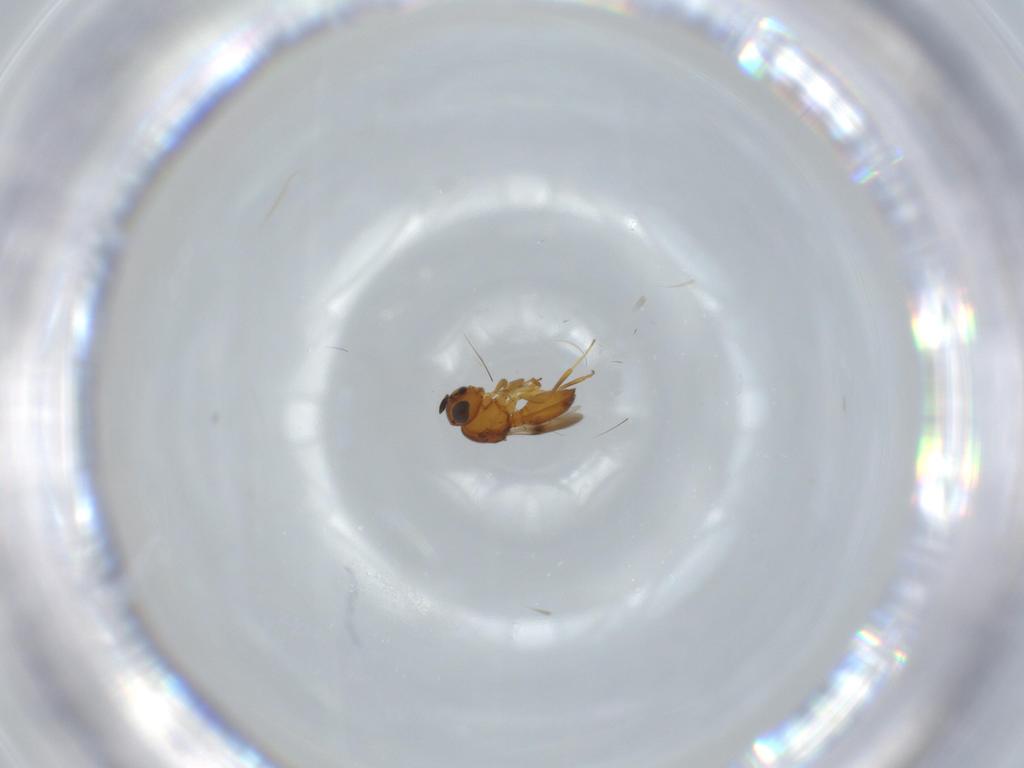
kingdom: Animalia
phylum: Arthropoda
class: Insecta
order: Hymenoptera
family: Scelionidae
